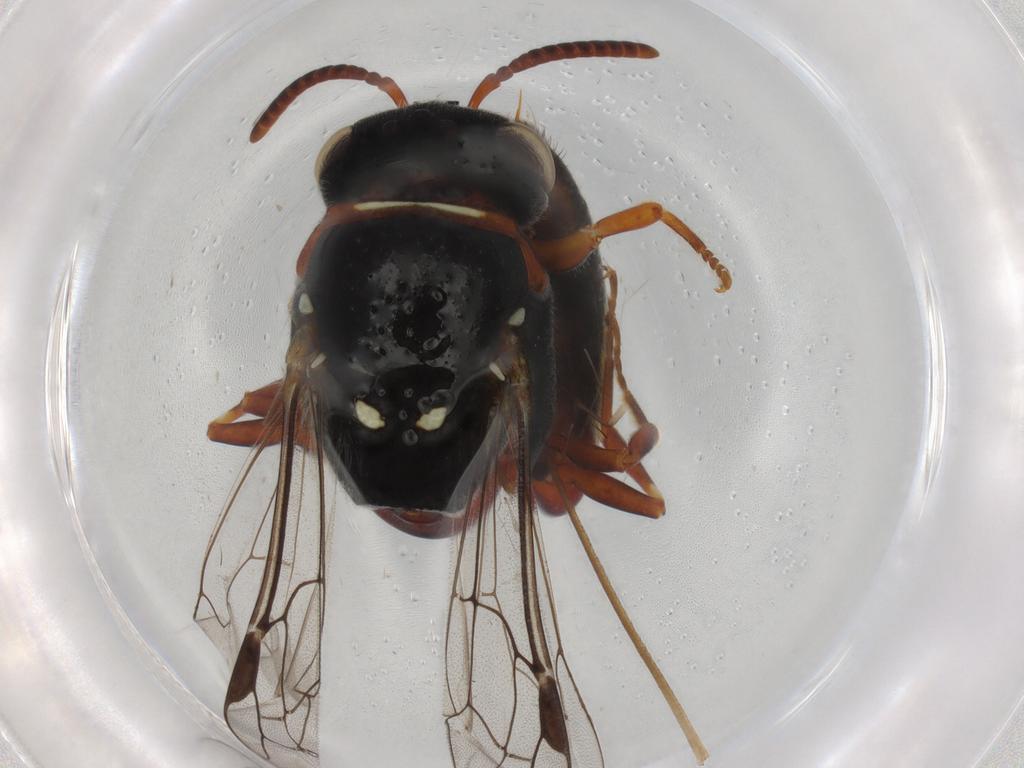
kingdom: Animalia
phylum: Arthropoda
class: Insecta
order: Hymenoptera
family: Colletidae
